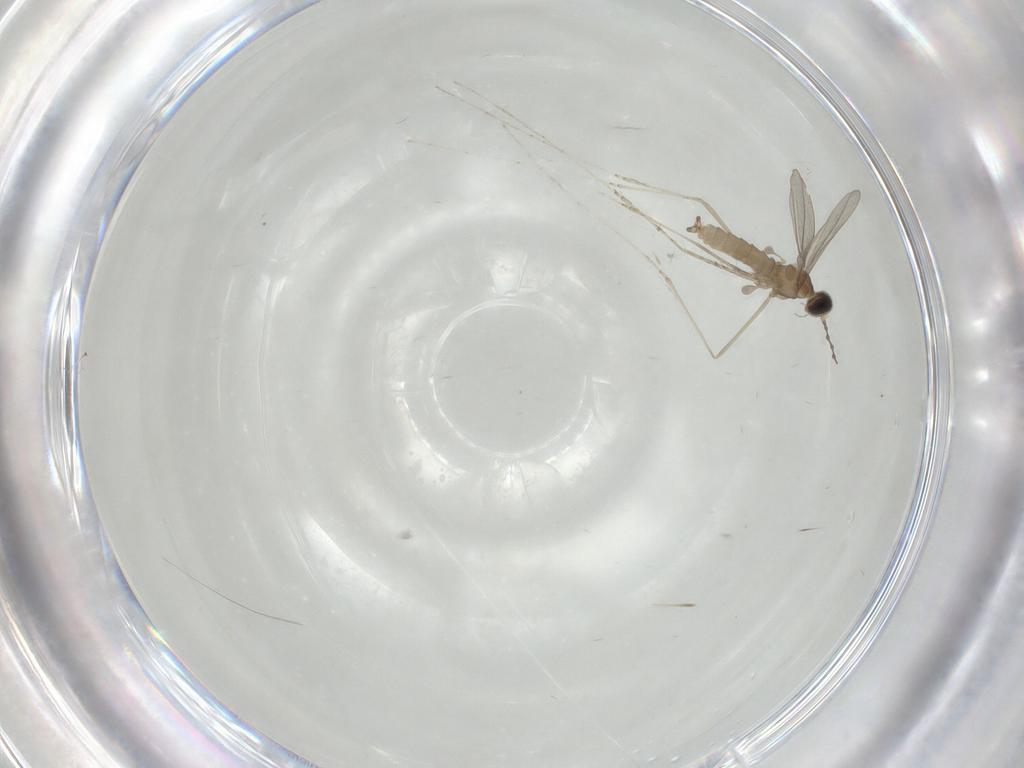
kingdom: Animalia
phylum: Arthropoda
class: Insecta
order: Diptera
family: Cecidomyiidae
